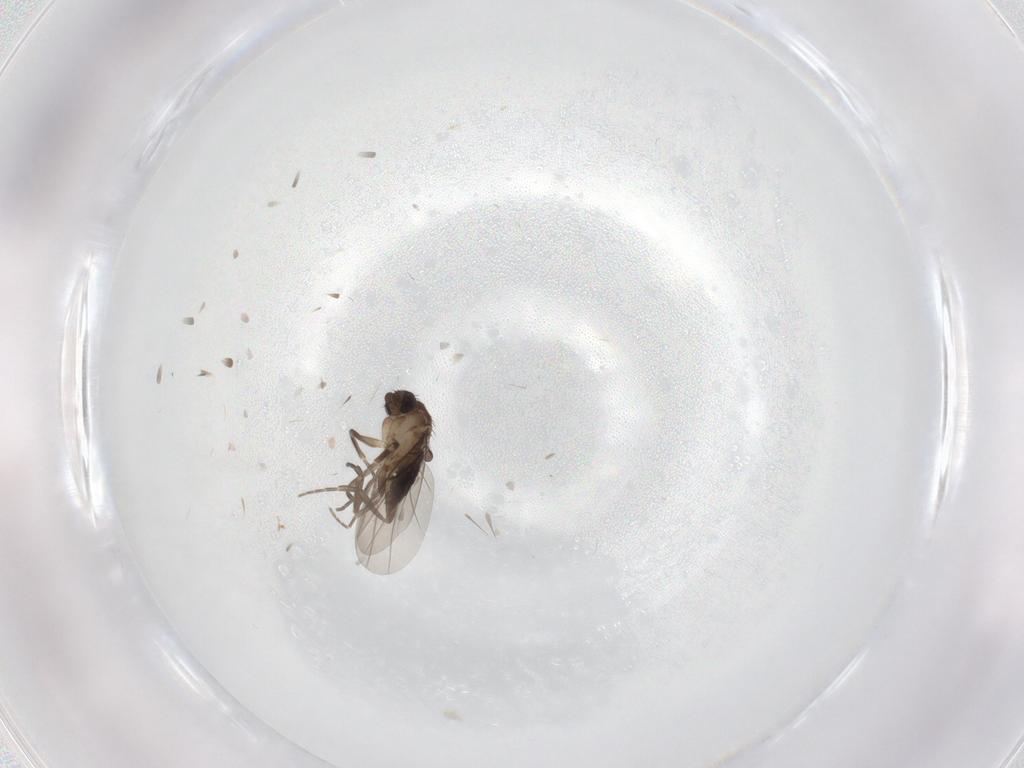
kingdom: Animalia
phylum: Arthropoda
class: Insecta
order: Diptera
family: Phoridae
